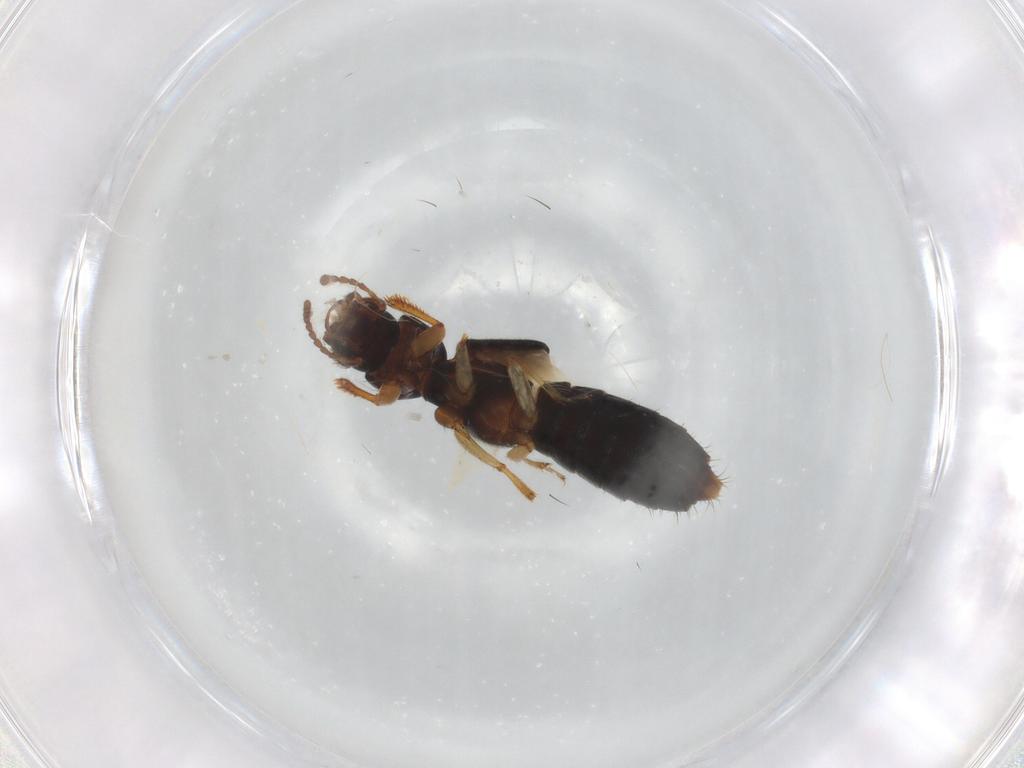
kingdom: Animalia
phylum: Arthropoda
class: Insecta
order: Coleoptera
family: Staphylinidae
